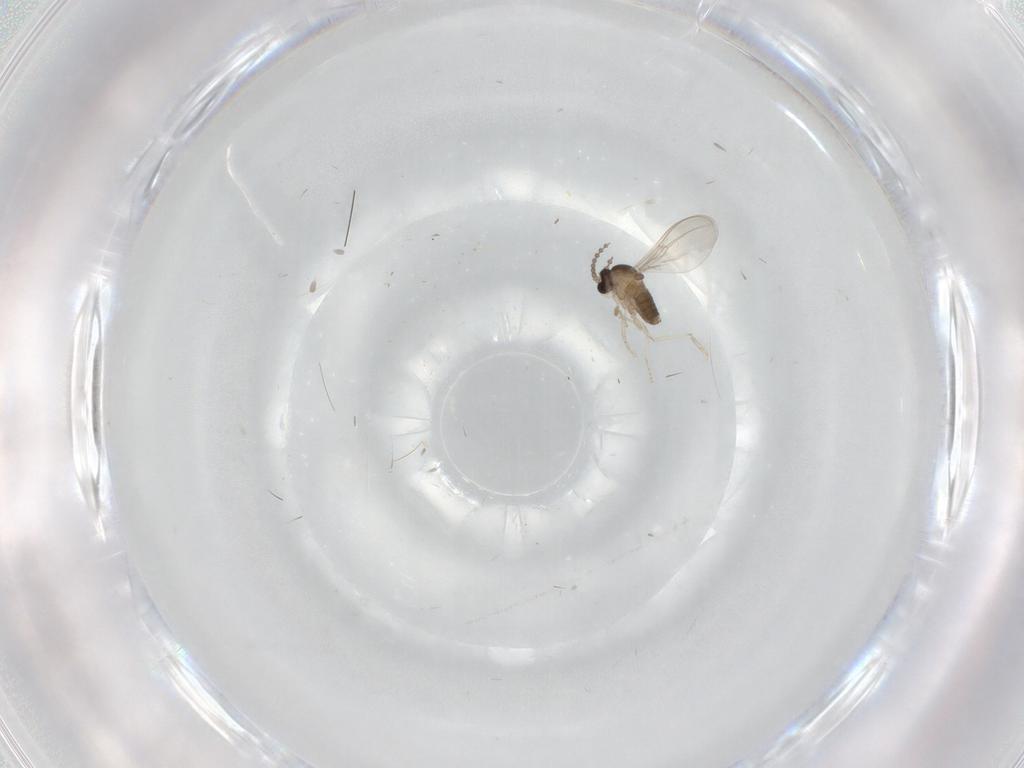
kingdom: Animalia
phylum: Arthropoda
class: Insecta
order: Diptera
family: Cecidomyiidae
